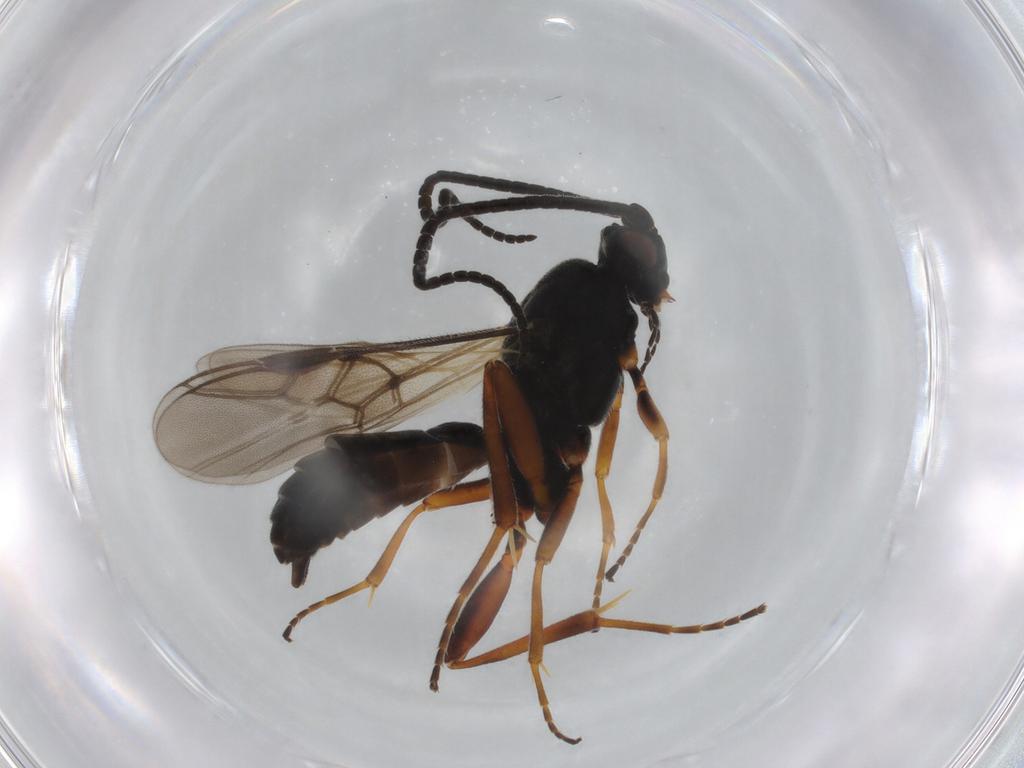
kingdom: Animalia
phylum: Arthropoda
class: Insecta
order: Hymenoptera
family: Braconidae
